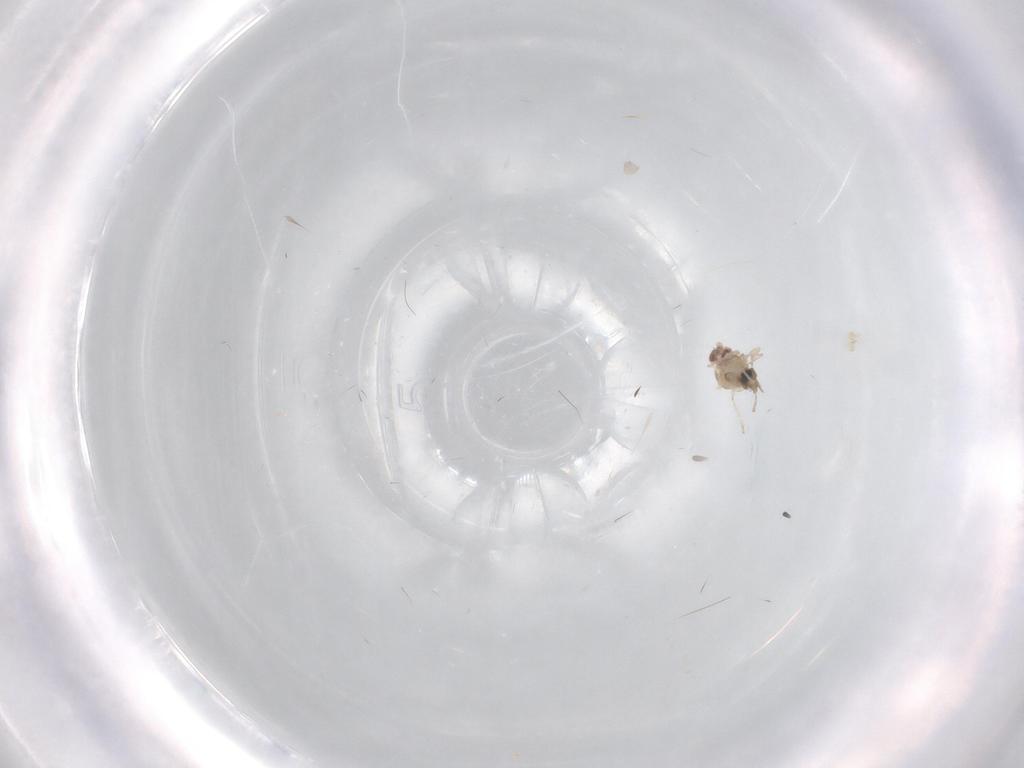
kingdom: Animalia
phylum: Arthropoda
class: Insecta
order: Diptera
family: Cecidomyiidae
